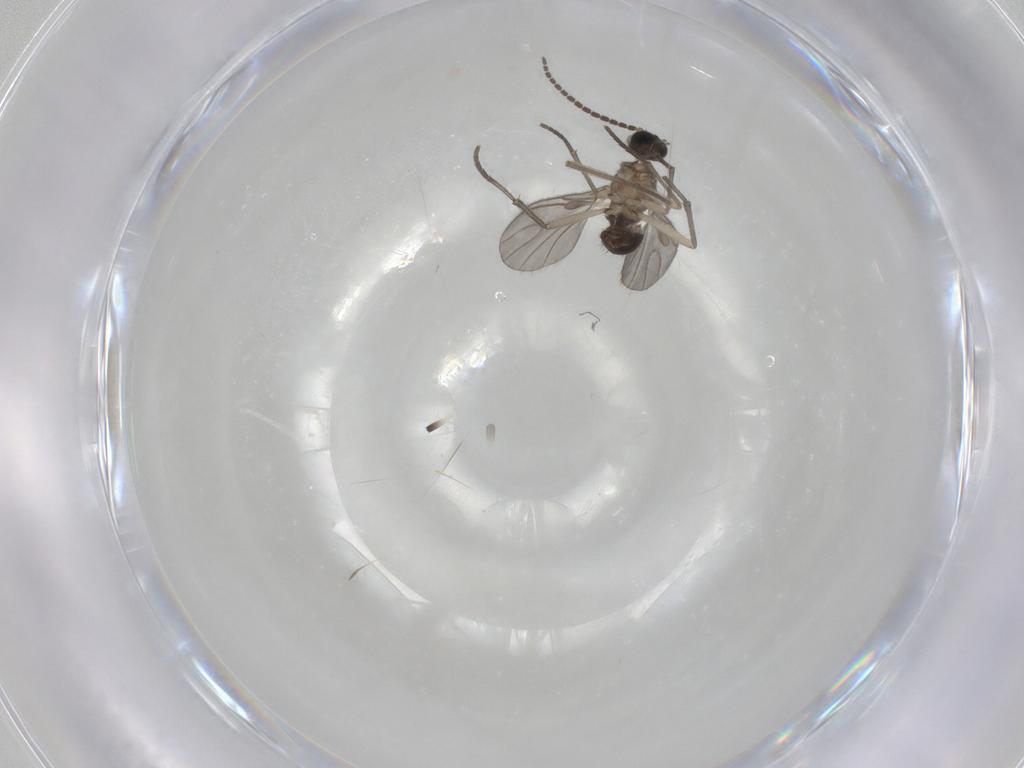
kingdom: Animalia
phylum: Arthropoda
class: Insecta
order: Diptera
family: Sciaridae
